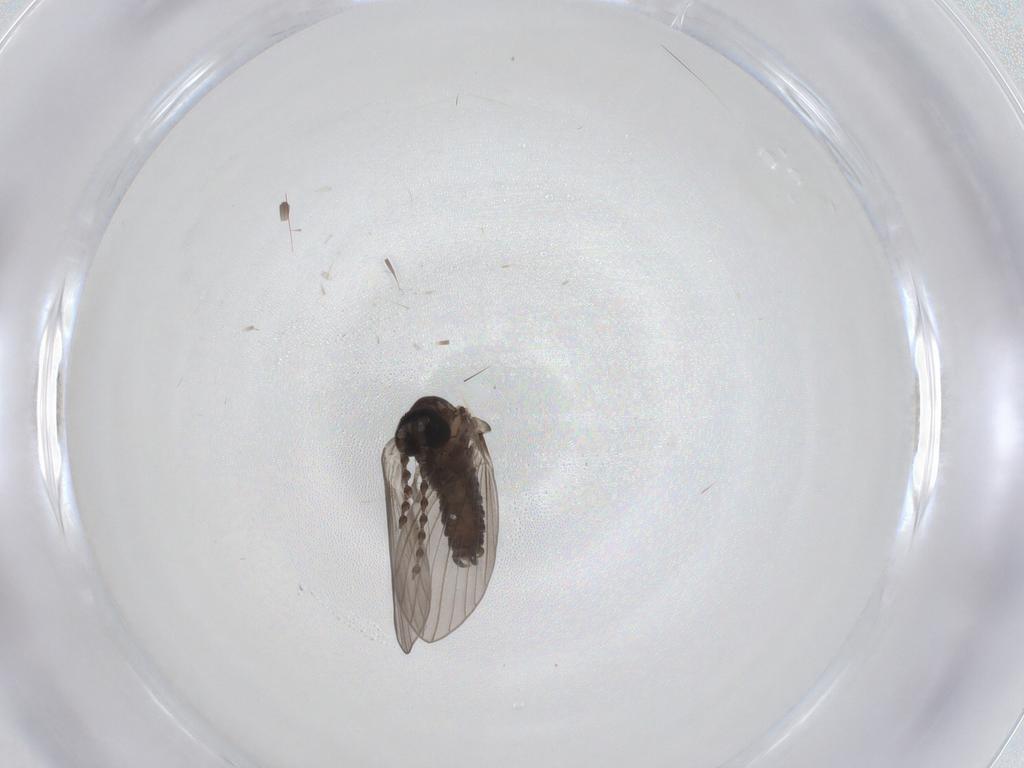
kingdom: Animalia
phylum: Arthropoda
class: Insecta
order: Diptera
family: Psychodidae
